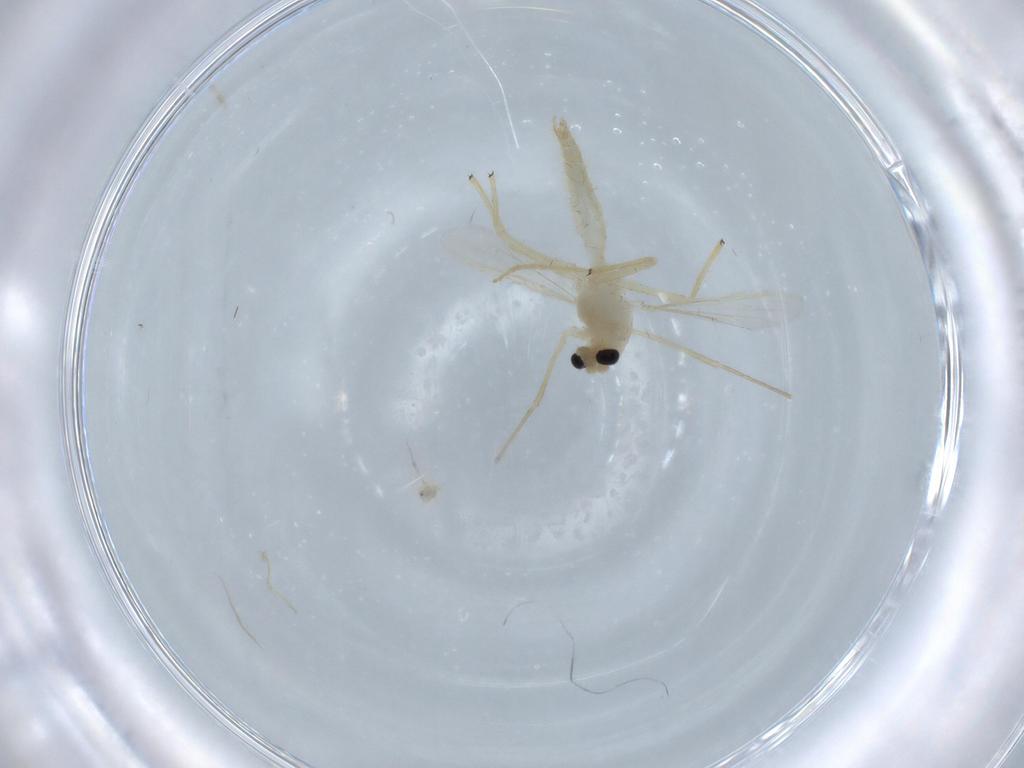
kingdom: Animalia
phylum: Arthropoda
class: Insecta
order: Diptera
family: Chironomidae
